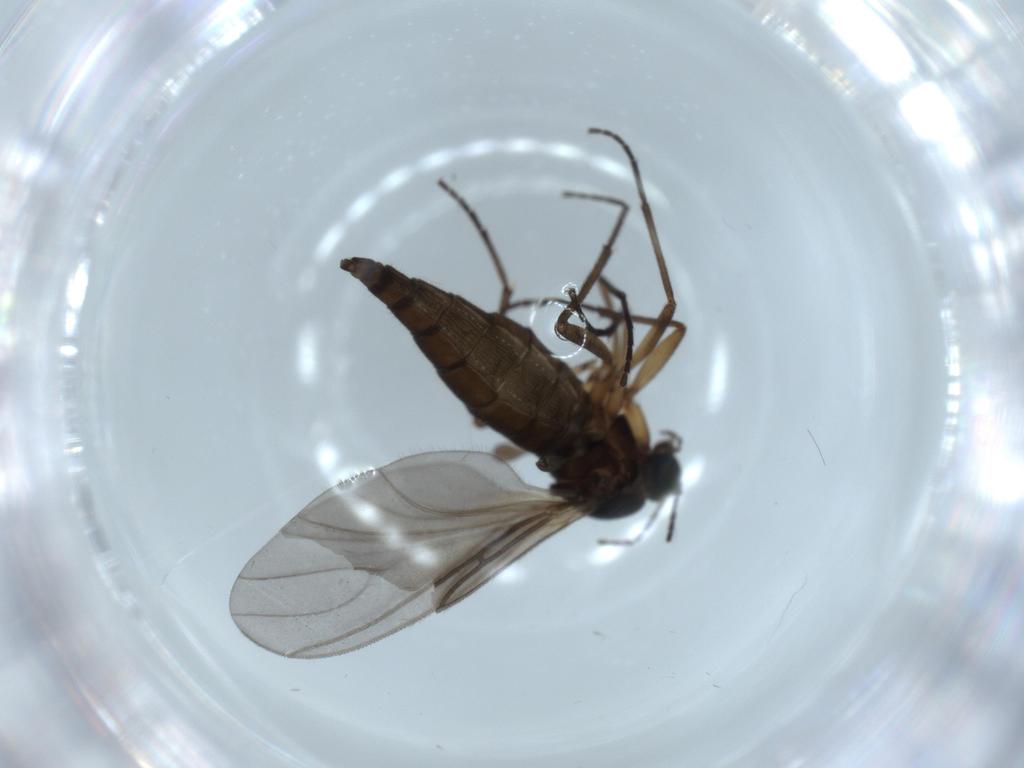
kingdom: Animalia
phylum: Arthropoda
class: Insecta
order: Diptera
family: Sciaridae
